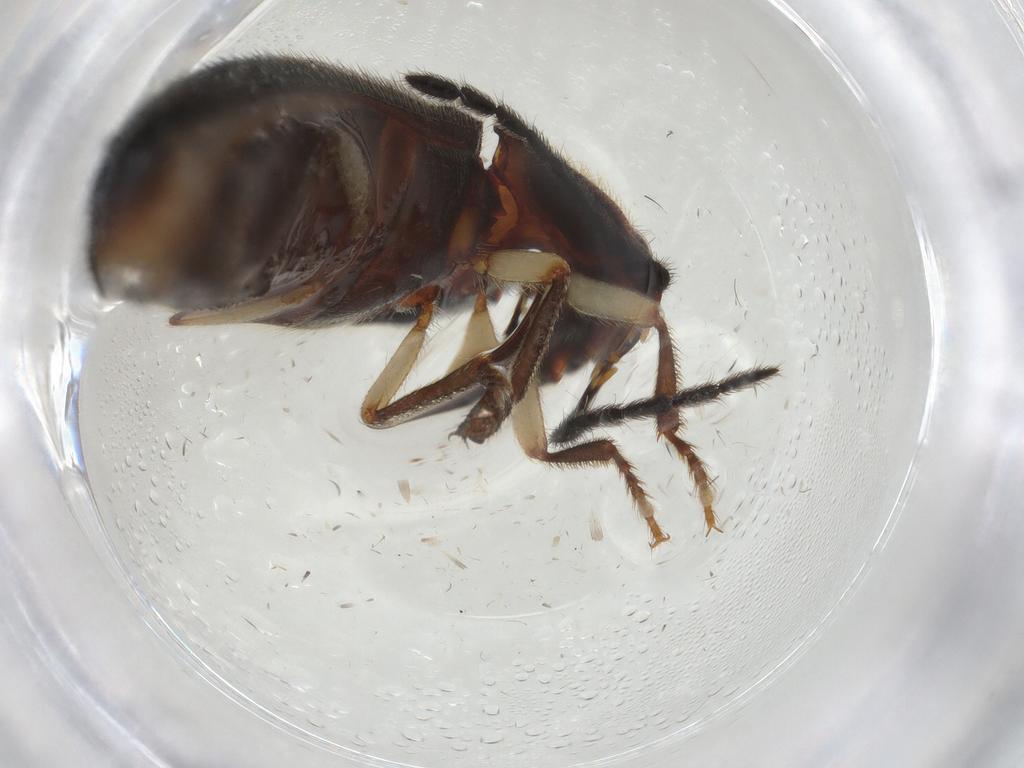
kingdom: Animalia
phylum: Arthropoda
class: Insecta
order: Coleoptera
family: Elateridae
